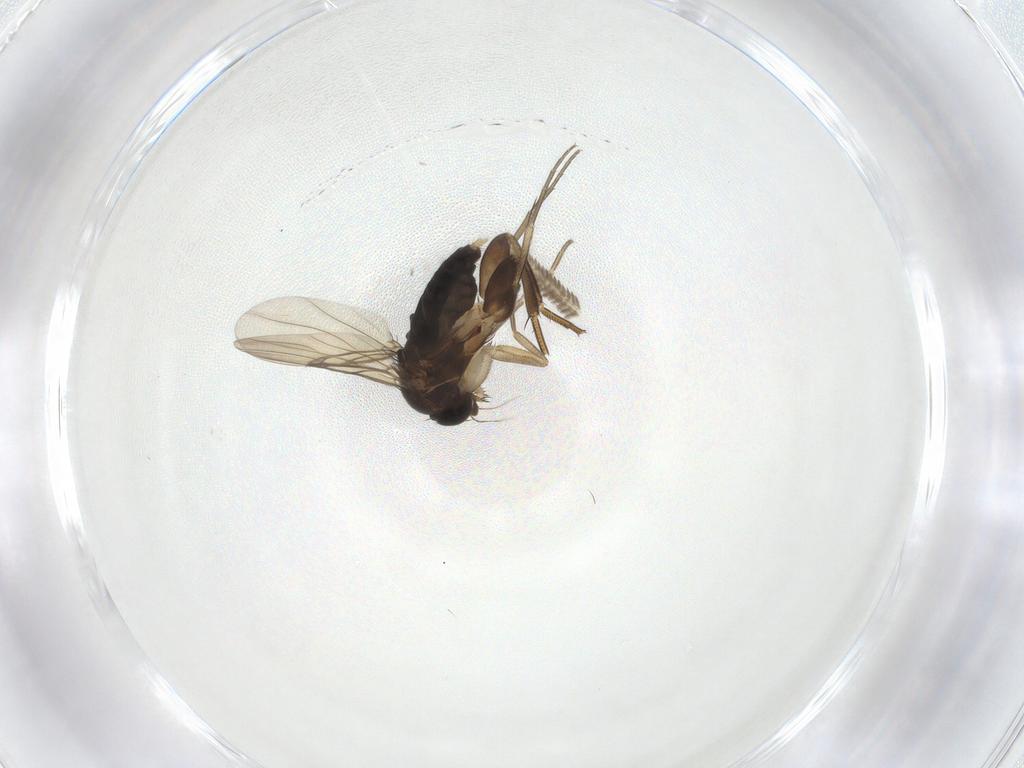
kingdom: Animalia
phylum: Arthropoda
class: Insecta
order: Diptera
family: Phoridae
